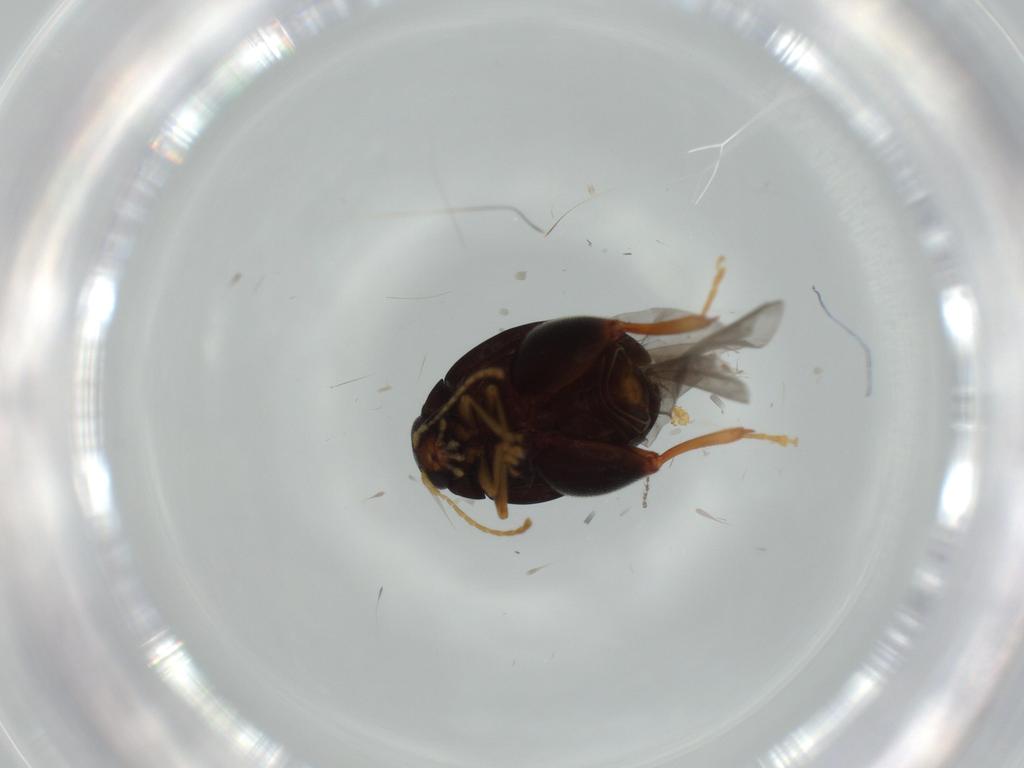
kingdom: Animalia
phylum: Arthropoda
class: Insecta
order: Coleoptera
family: Chrysomelidae
